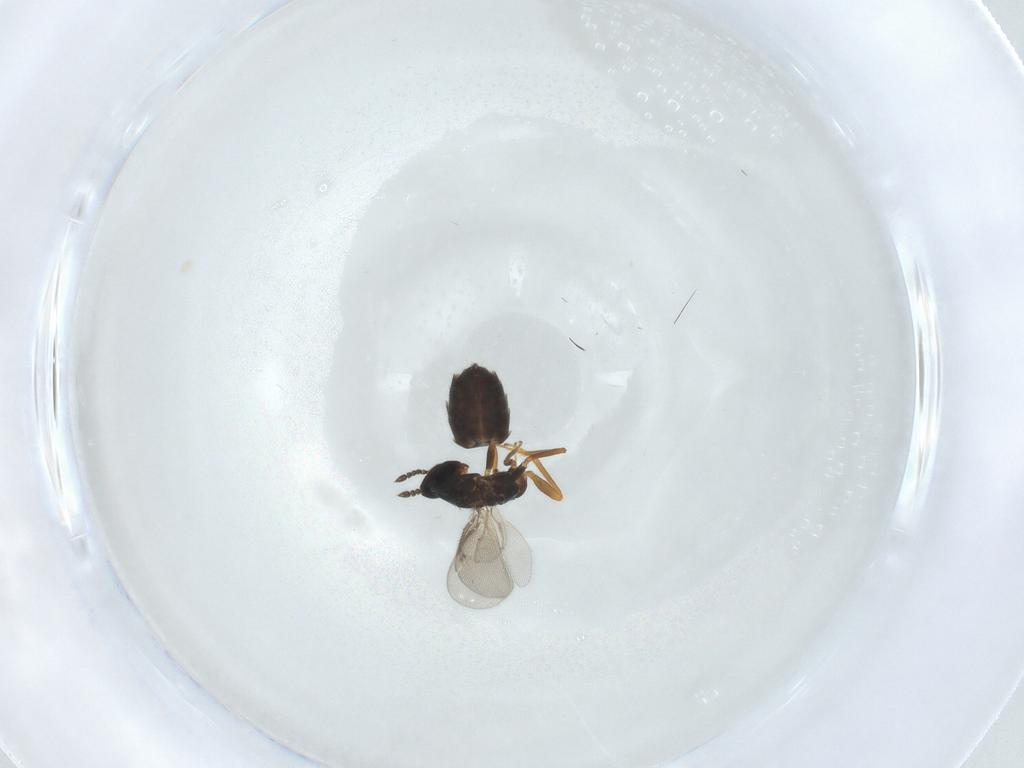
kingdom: Animalia
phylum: Arthropoda
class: Insecta
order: Hymenoptera
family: Eulophidae
